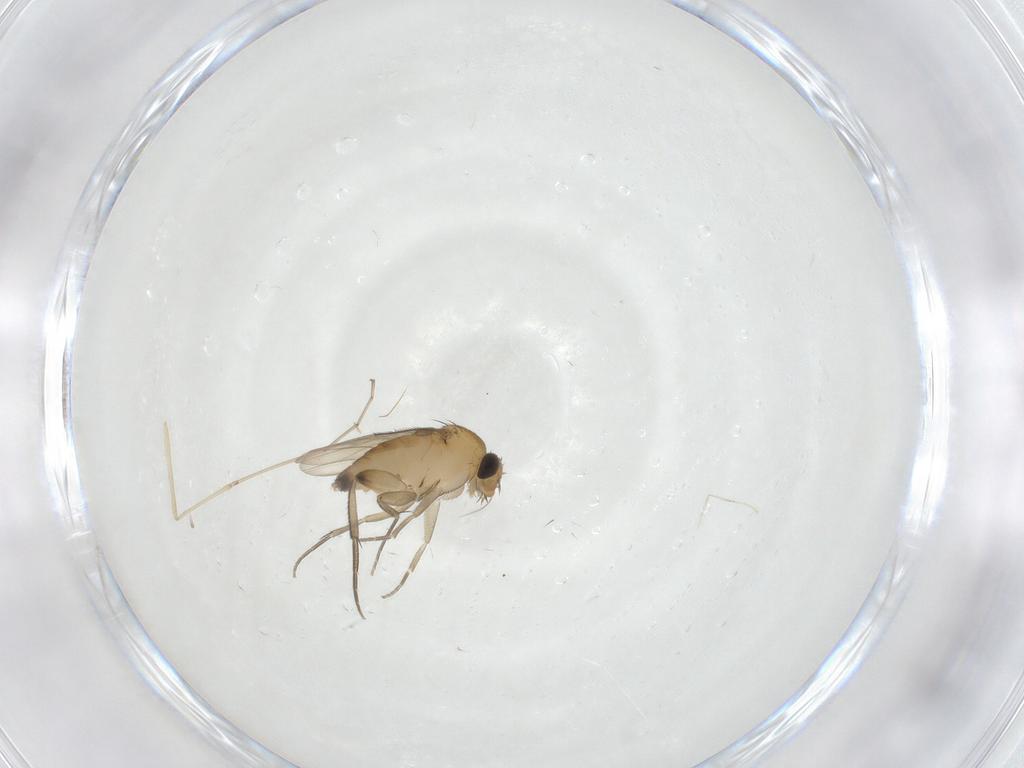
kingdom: Animalia
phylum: Arthropoda
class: Insecta
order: Diptera
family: Phoridae
